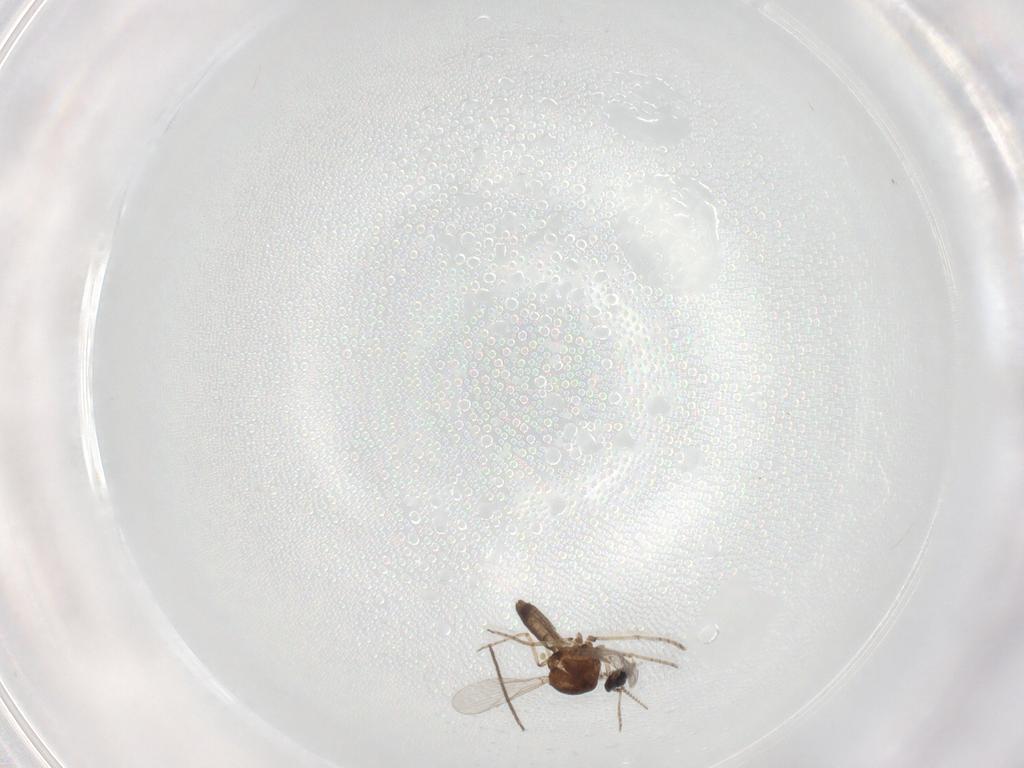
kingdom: Animalia
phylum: Arthropoda
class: Insecta
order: Diptera
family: Chironomidae
